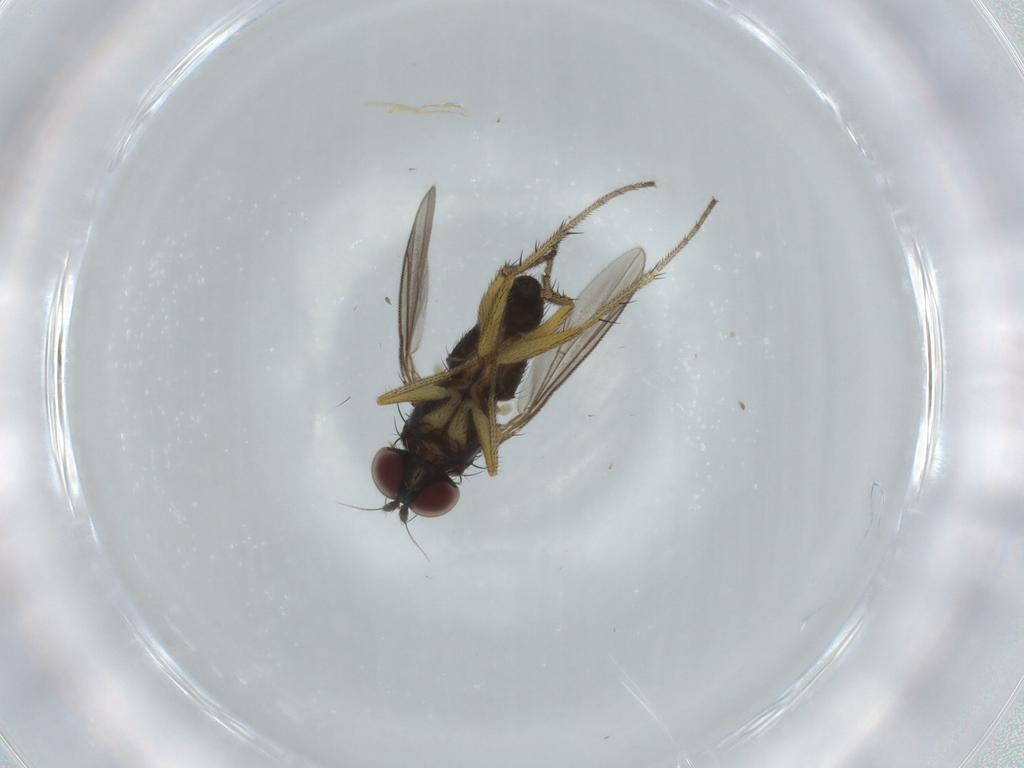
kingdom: Animalia
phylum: Arthropoda
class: Insecta
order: Diptera
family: Dolichopodidae
